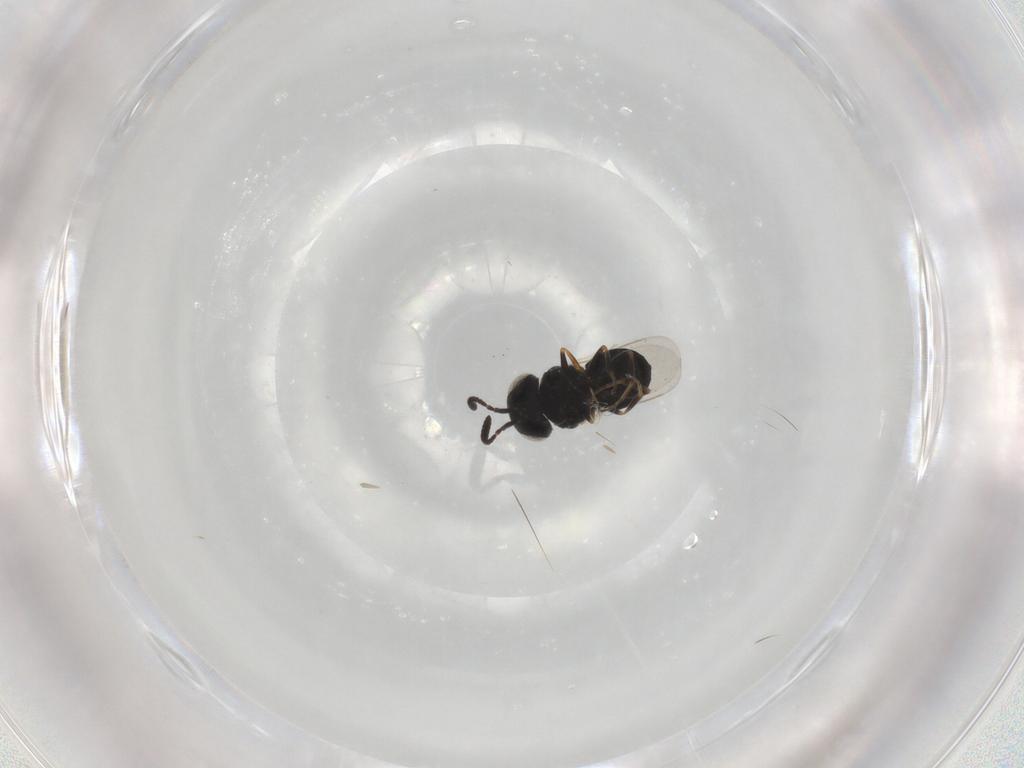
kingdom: Animalia
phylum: Arthropoda
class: Insecta
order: Hymenoptera
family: Scelionidae
